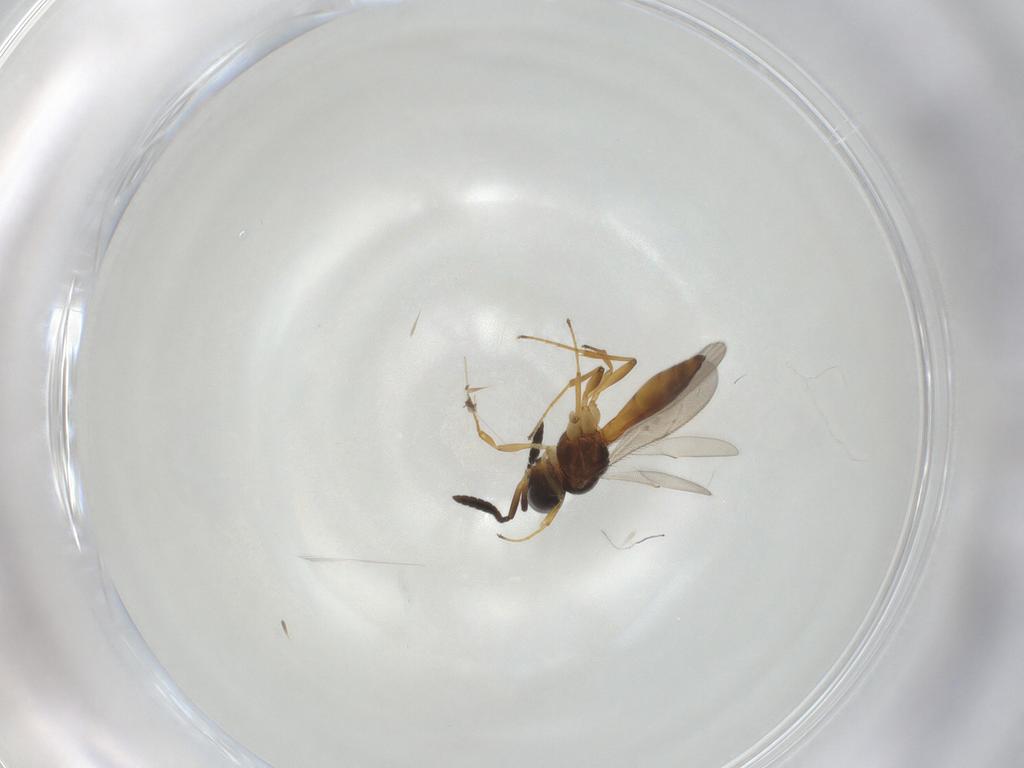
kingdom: Animalia
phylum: Arthropoda
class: Insecta
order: Hymenoptera
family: Scelionidae
